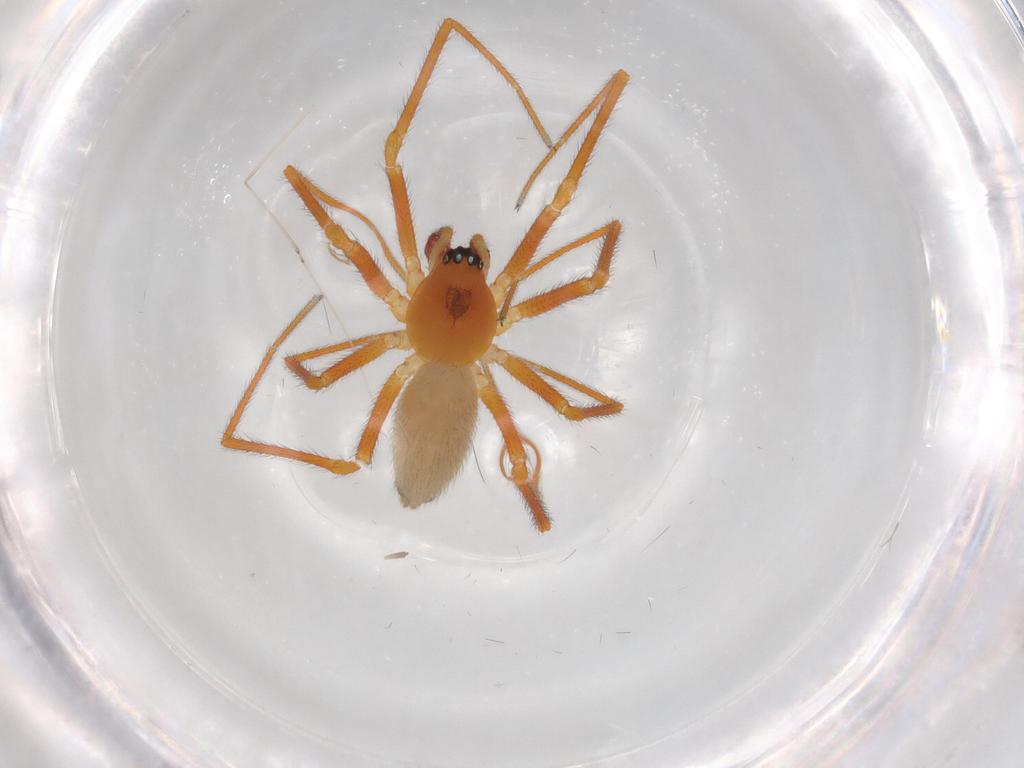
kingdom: Animalia
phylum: Arthropoda
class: Arachnida
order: Araneae
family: Linyphiidae
